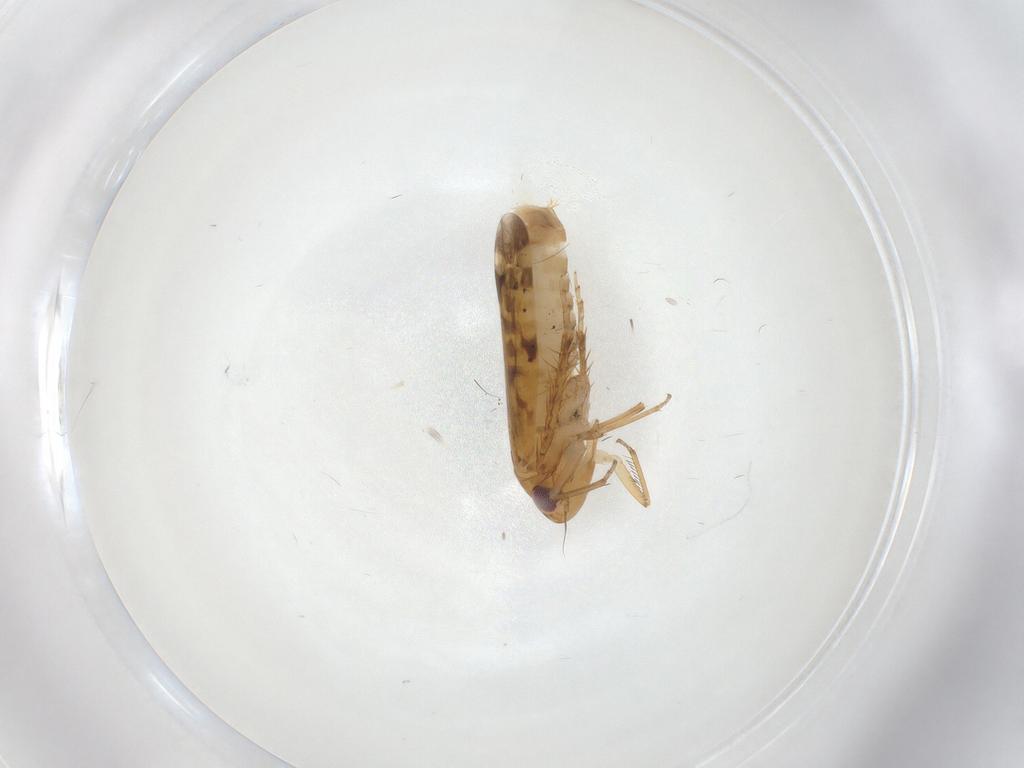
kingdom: Animalia
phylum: Arthropoda
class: Insecta
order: Hemiptera
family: Cicadellidae
